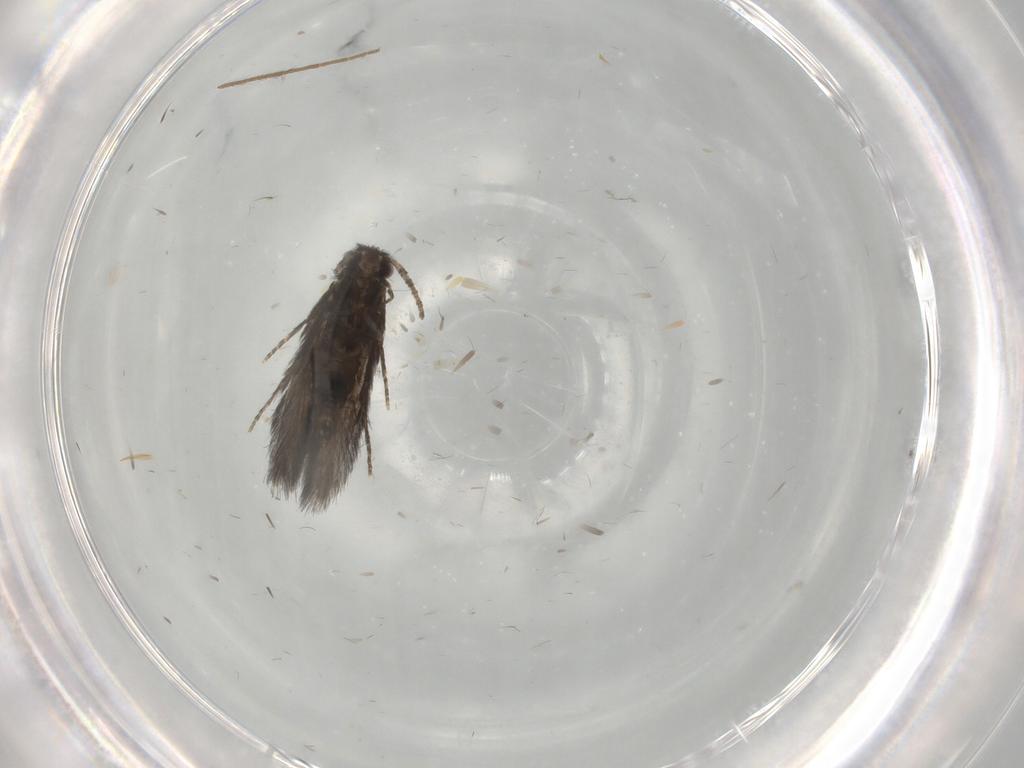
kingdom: Animalia
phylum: Arthropoda
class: Insecta
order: Trichoptera
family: Hydroptilidae
